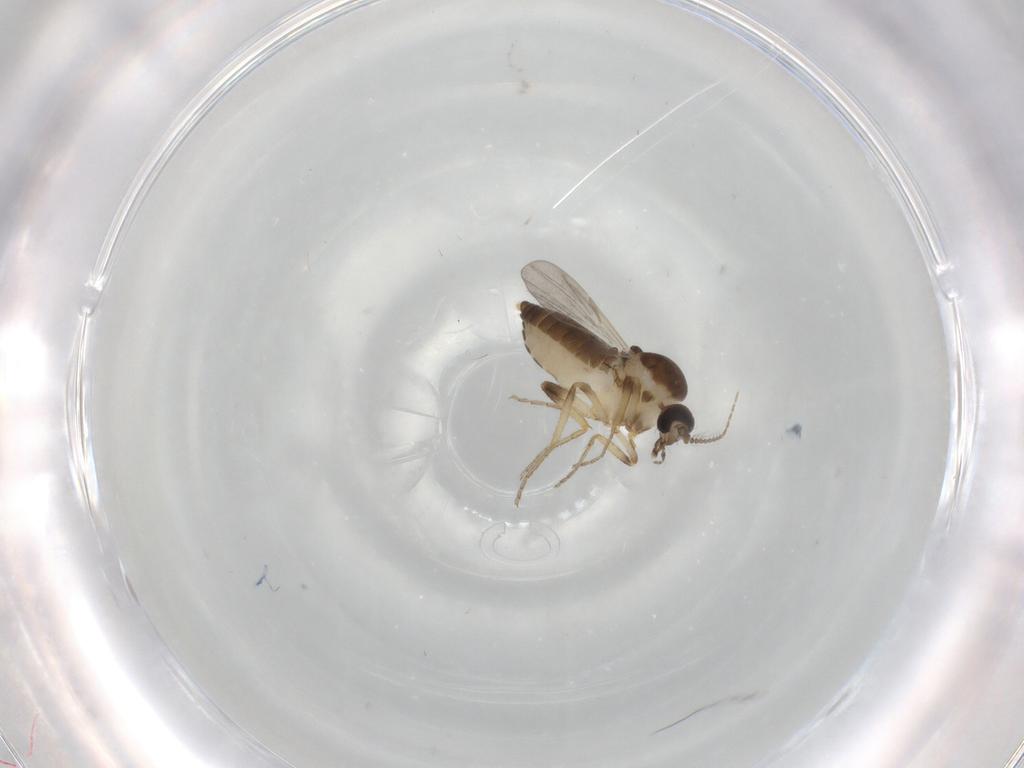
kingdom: Animalia
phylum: Arthropoda
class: Insecta
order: Diptera
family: Ceratopogonidae
